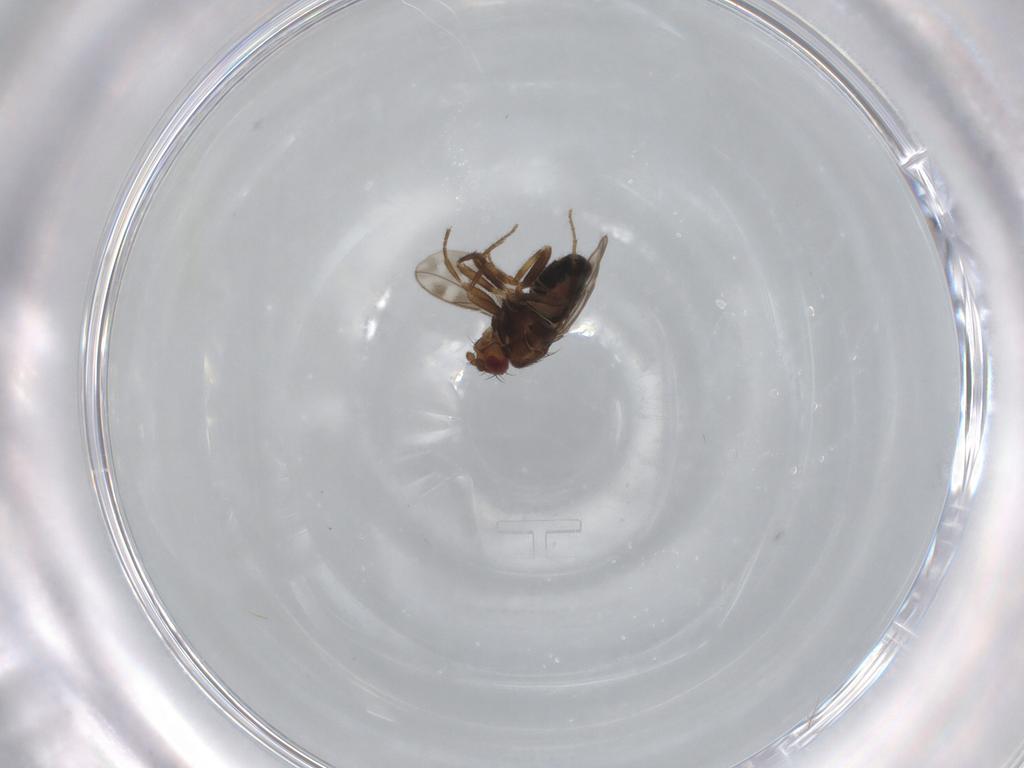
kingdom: Animalia
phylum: Arthropoda
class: Insecta
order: Diptera
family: Sphaeroceridae
